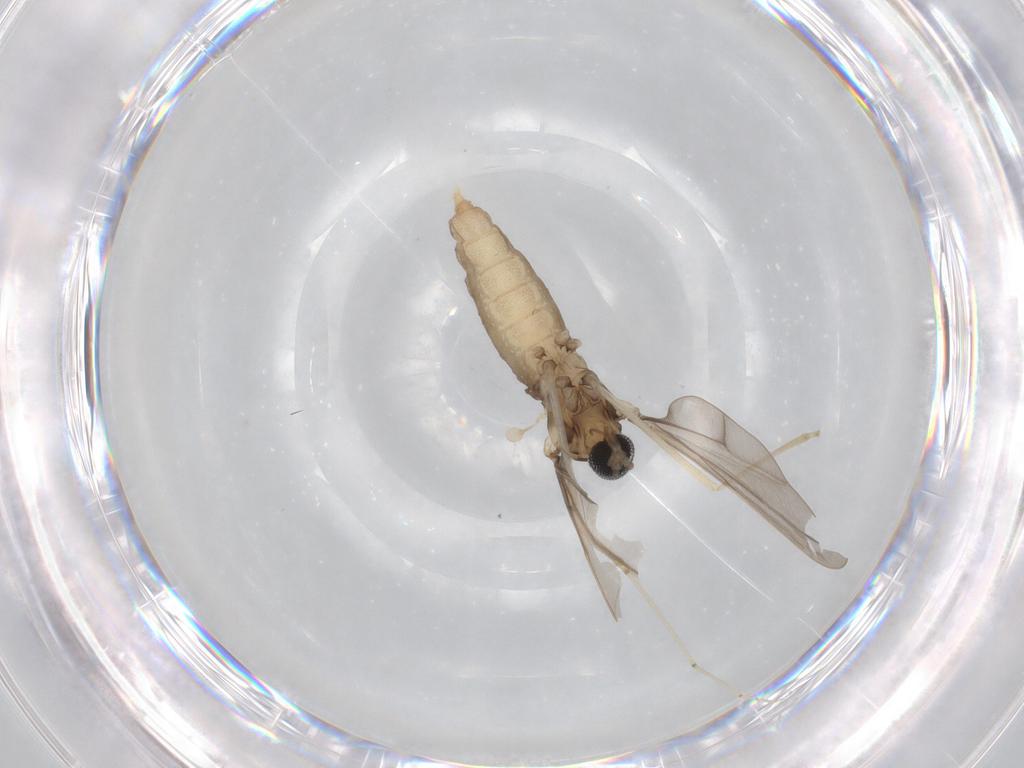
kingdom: Animalia
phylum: Arthropoda
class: Insecta
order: Diptera
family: Cecidomyiidae
